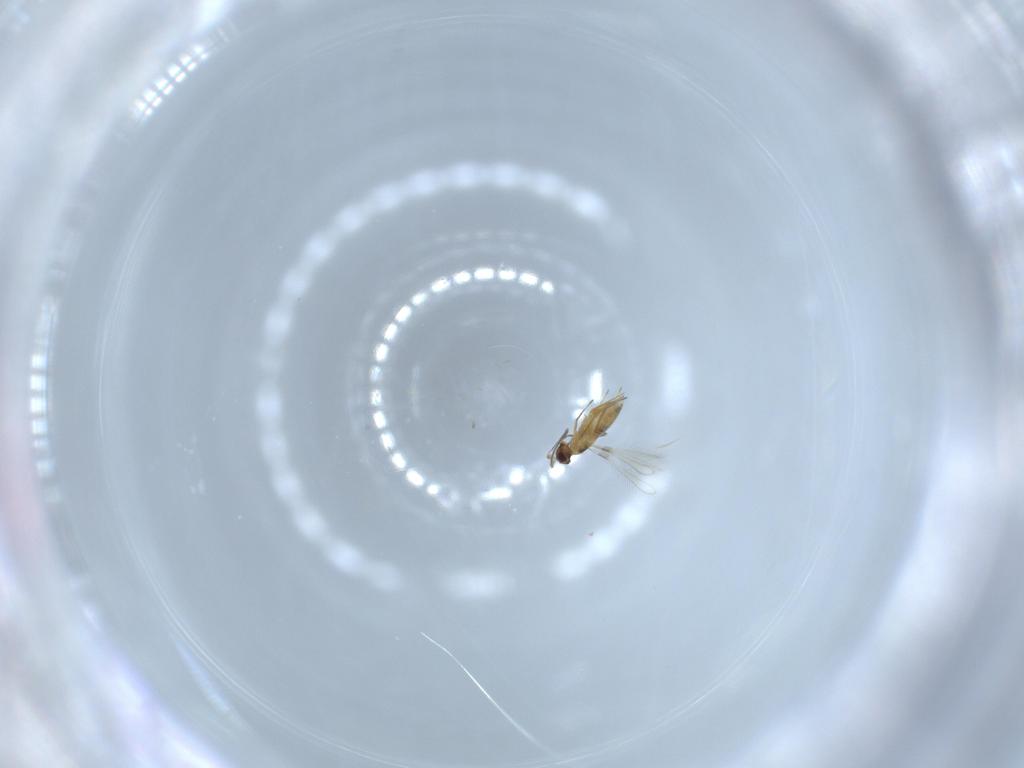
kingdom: Animalia
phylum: Arthropoda
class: Insecta
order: Hymenoptera
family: Mymaridae
